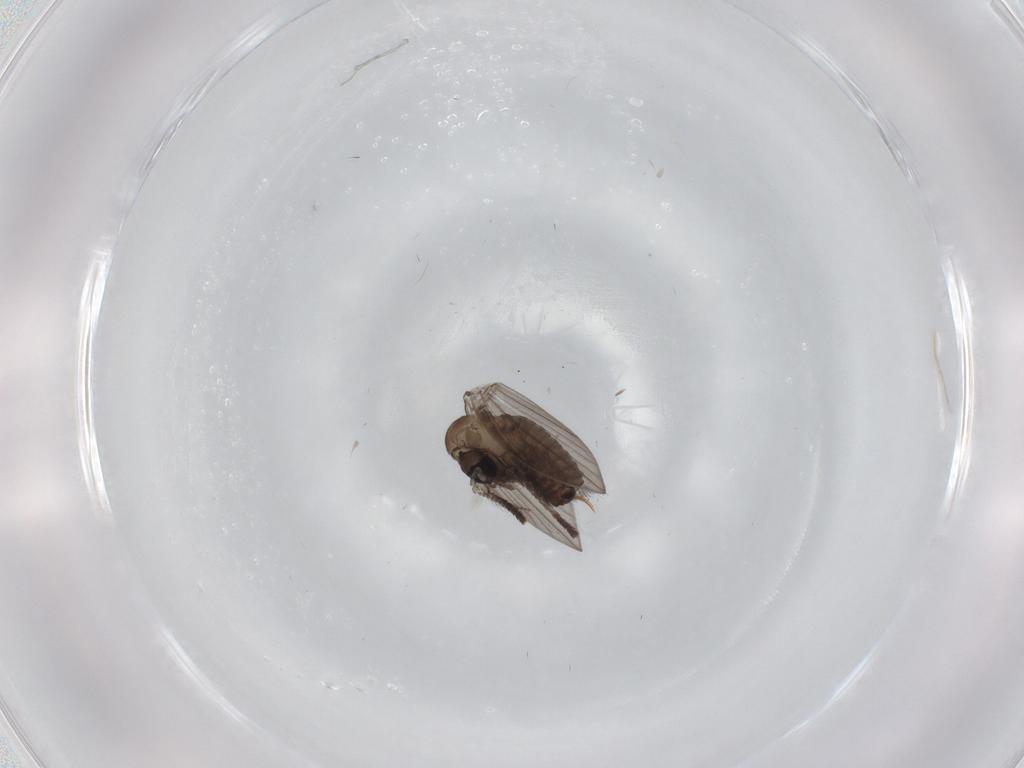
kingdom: Animalia
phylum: Arthropoda
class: Insecta
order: Diptera
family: Psychodidae
